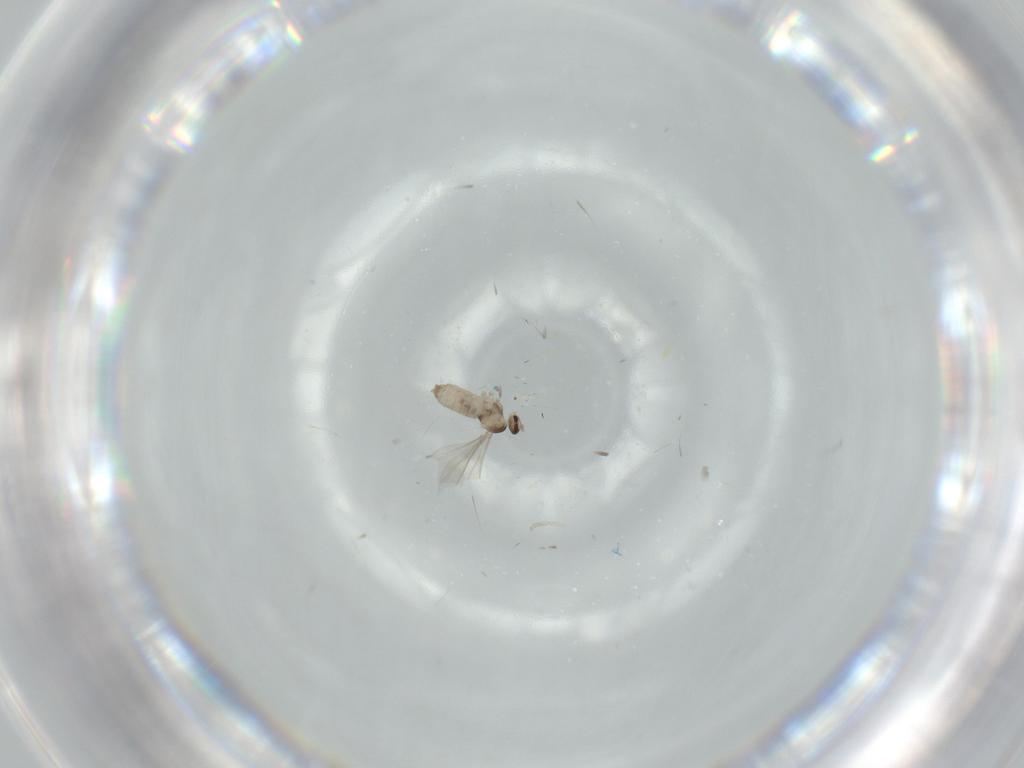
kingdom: Animalia
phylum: Arthropoda
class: Insecta
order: Diptera
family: Cecidomyiidae
